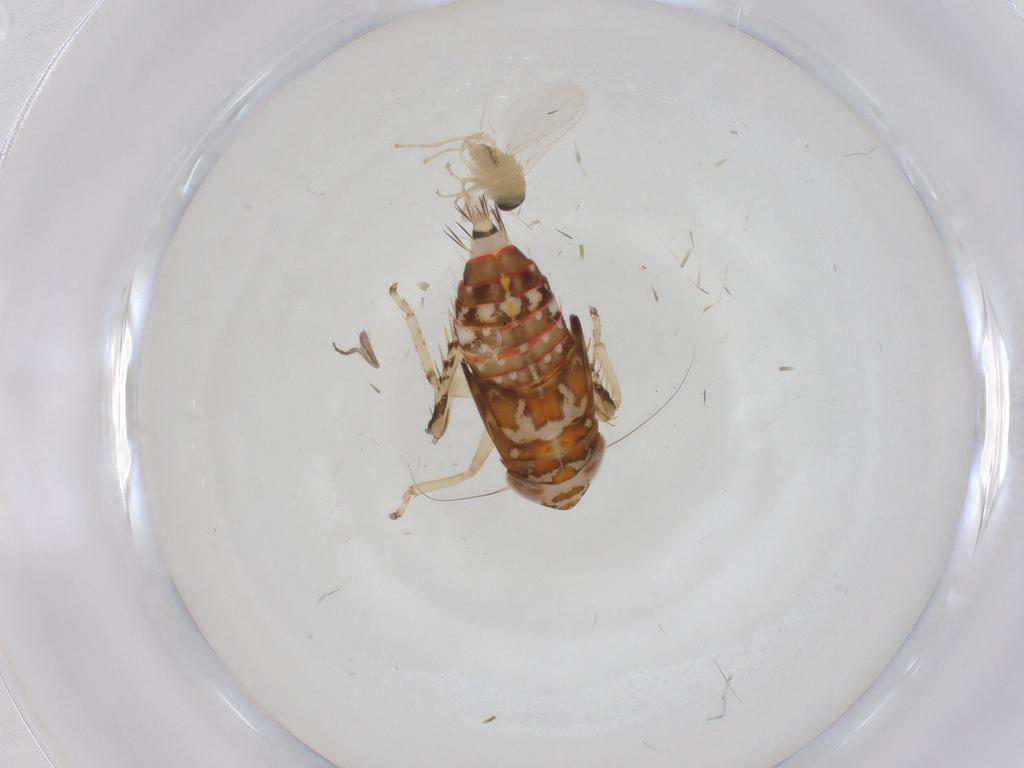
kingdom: Animalia
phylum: Arthropoda
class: Insecta
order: Hemiptera
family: Cicadellidae
